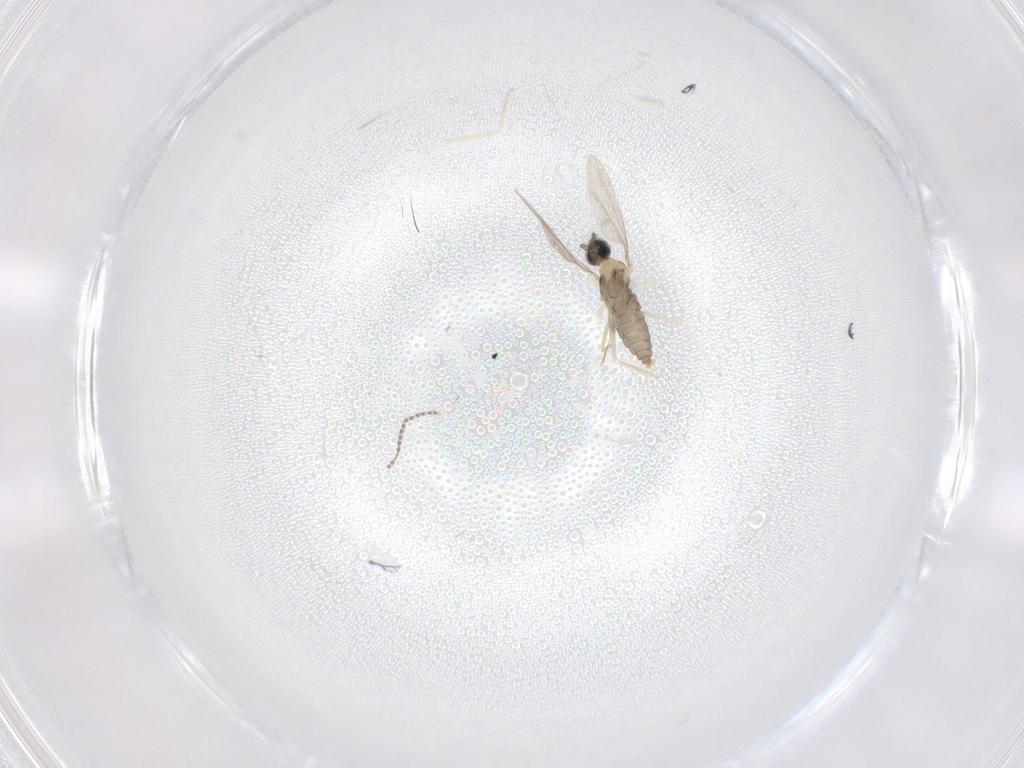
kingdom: Animalia
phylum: Arthropoda
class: Insecta
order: Diptera
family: Cecidomyiidae
